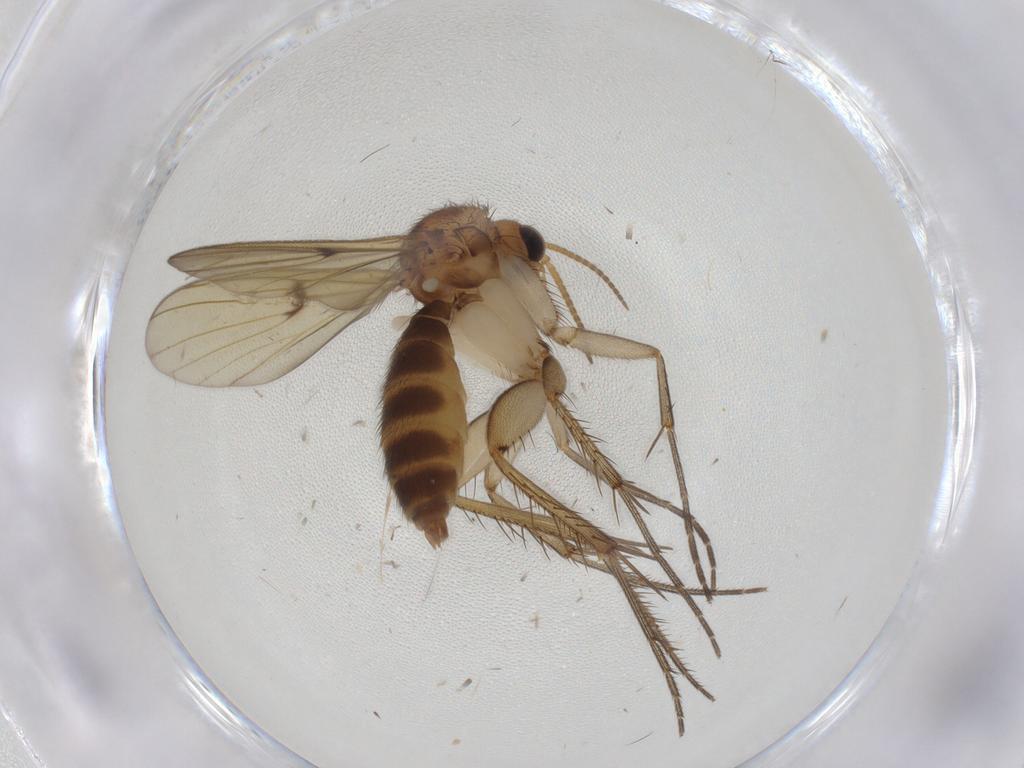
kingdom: Animalia
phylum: Arthropoda
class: Insecta
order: Diptera
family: Chironomidae
